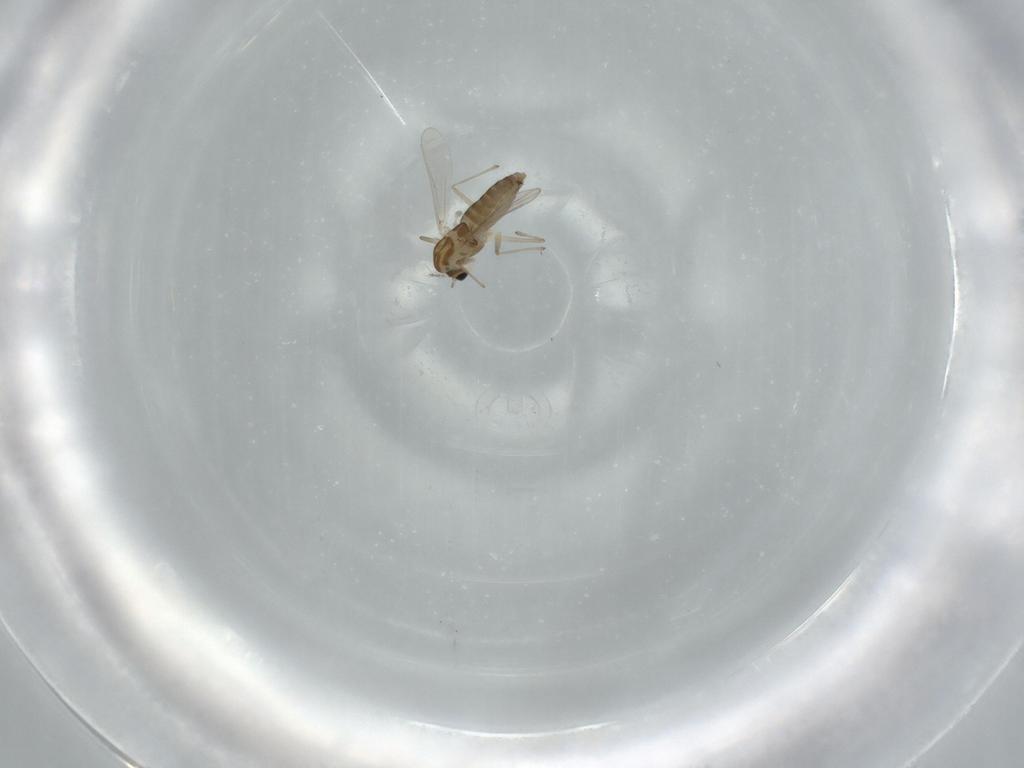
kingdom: Animalia
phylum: Arthropoda
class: Insecta
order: Diptera
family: Chironomidae
